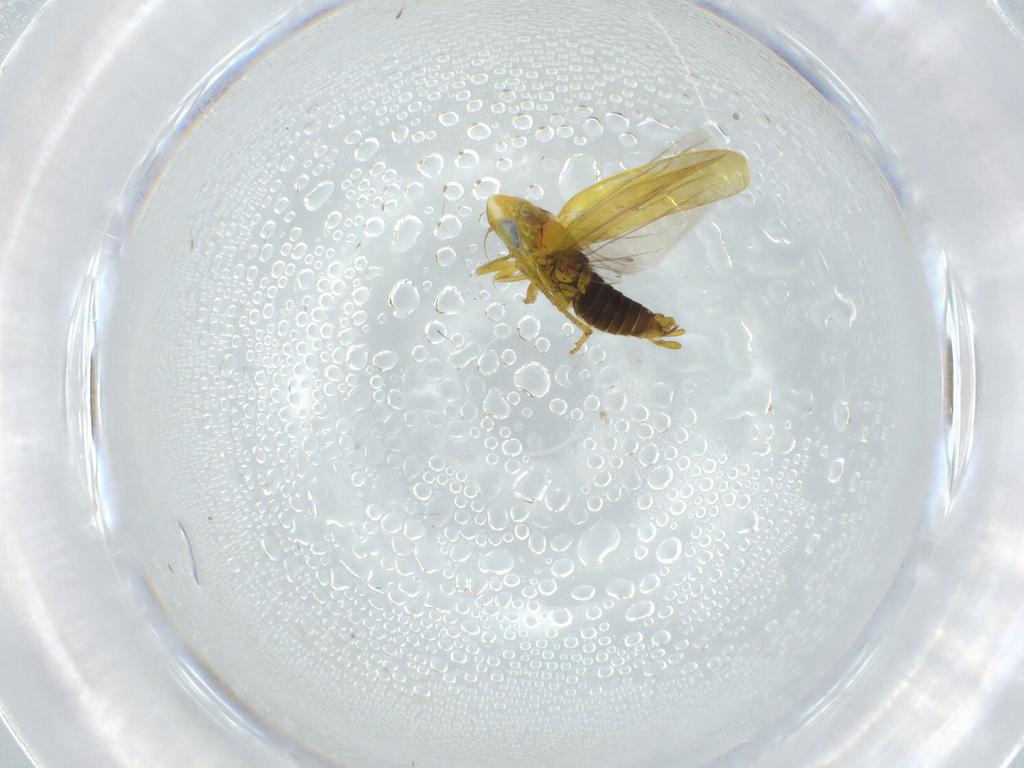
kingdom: Animalia
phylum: Arthropoda
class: Insecta
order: Hemiptera
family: Cicadellidae
